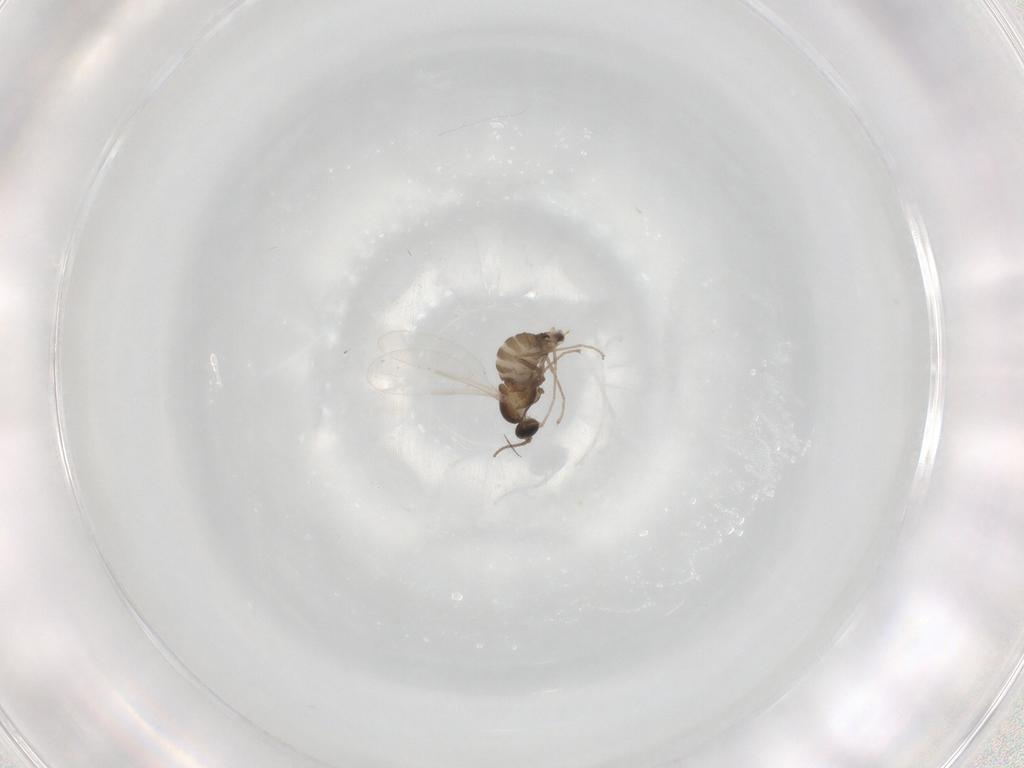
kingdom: Animalia
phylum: Arthropoda
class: Insecta
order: Diptera
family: Cecidomyiidae
